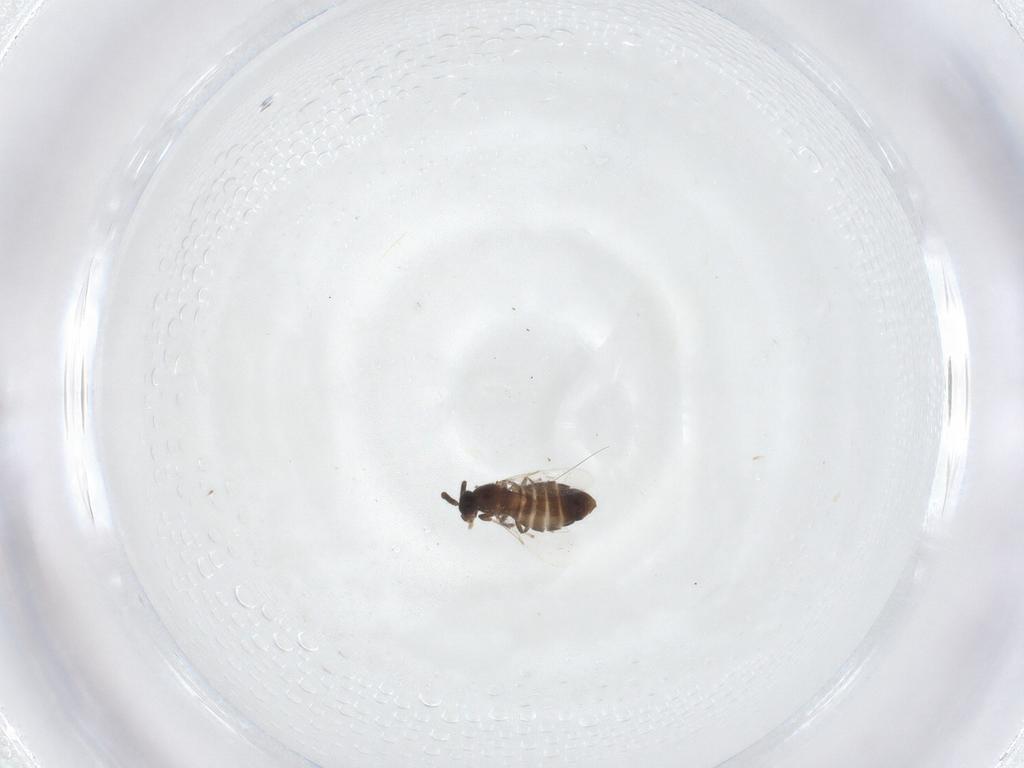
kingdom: Animalia
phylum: Arthropoda
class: Insecta
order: Diptera
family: Scatopsidae
